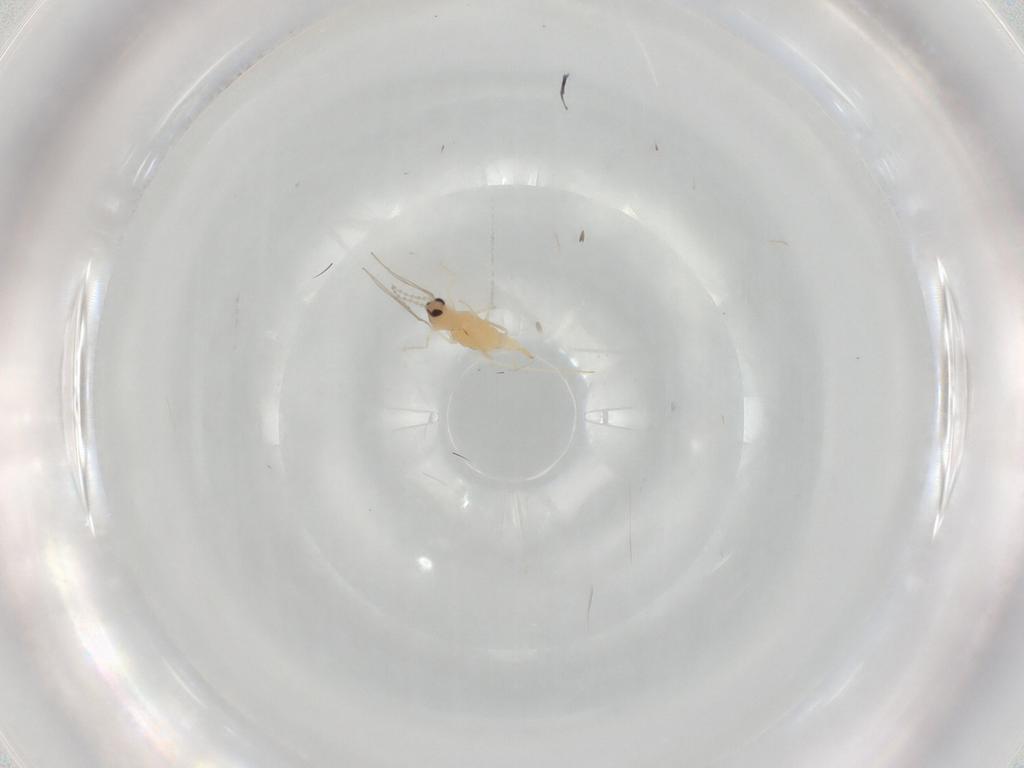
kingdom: Animalia
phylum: Arthropoda
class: Insecta
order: Diptera
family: Cecidomyiidae
